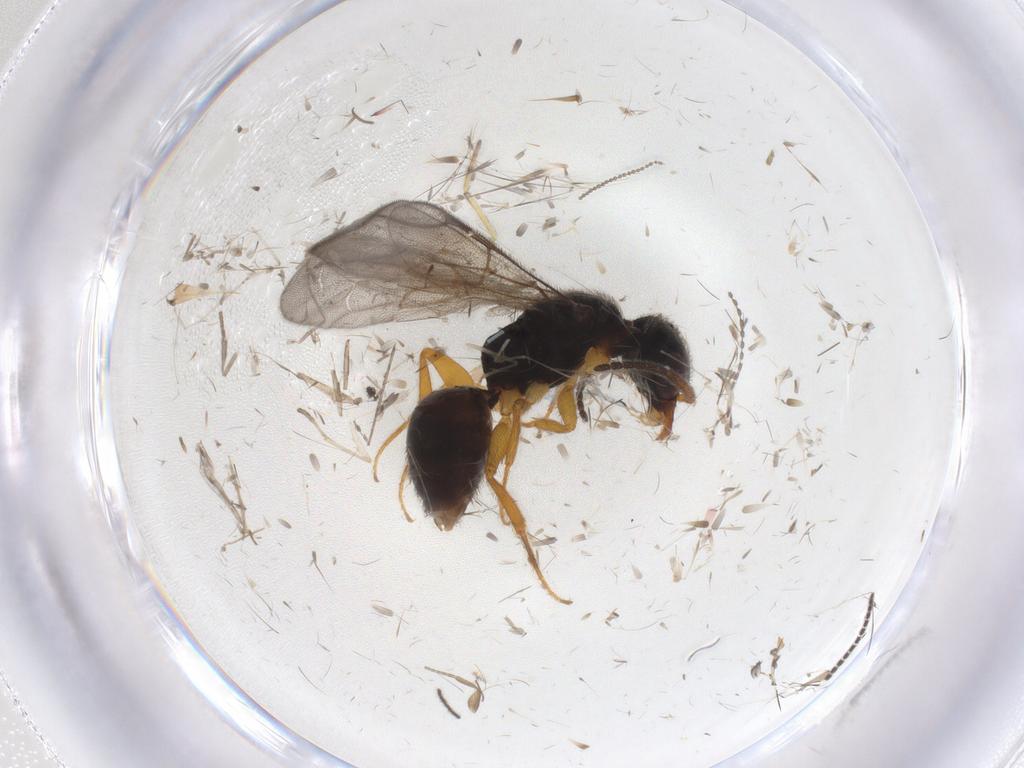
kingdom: Animalia
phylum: Arthropoda
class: Insecta
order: Hymenoptera
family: Bethylidae
